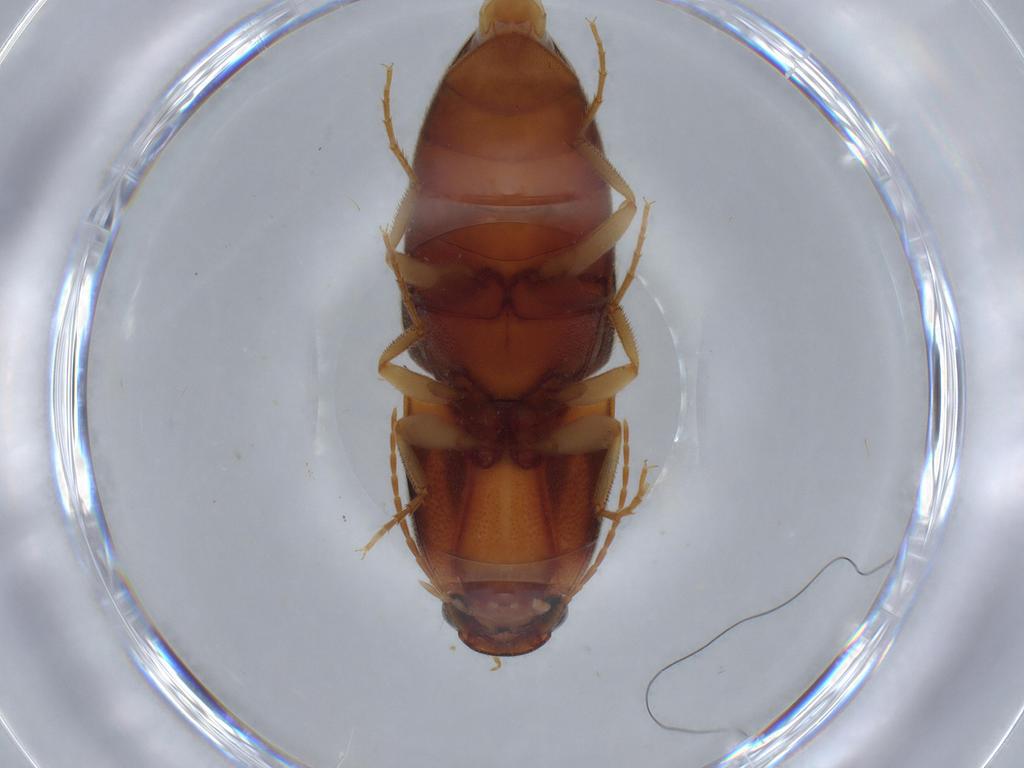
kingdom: Animalia
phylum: Arthropoda
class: Insecta
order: Coleoptera
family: Elateridae
